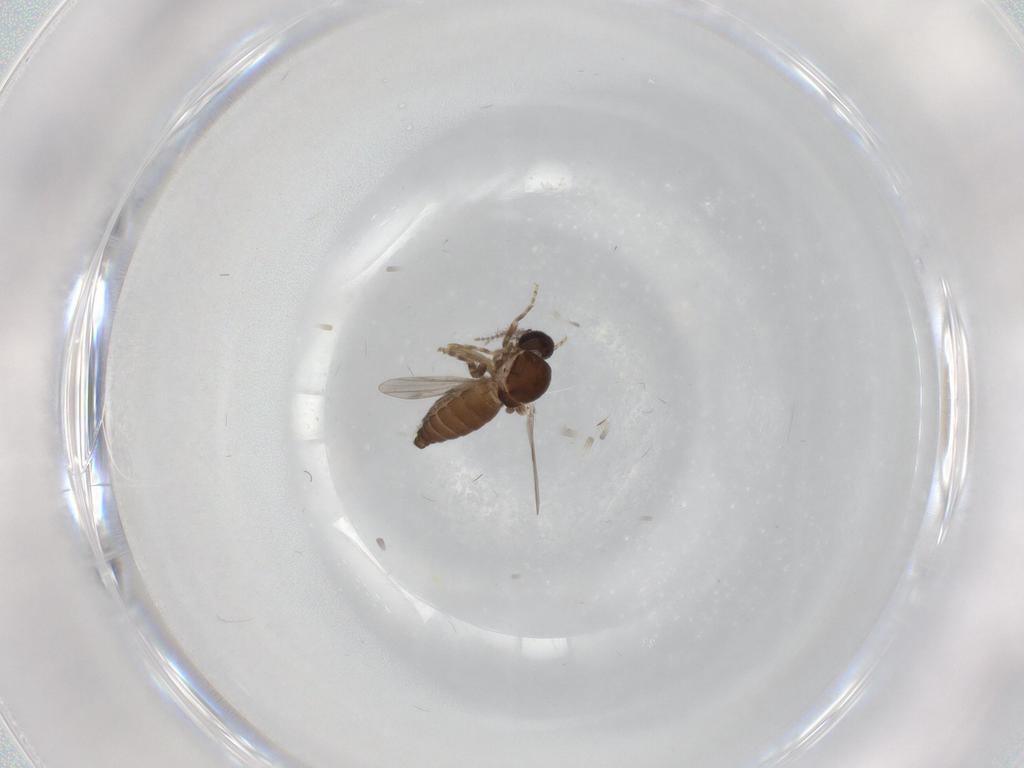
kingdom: Animalia
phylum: Arthropoda
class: Insecta
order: Diptera
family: Ceratopogonidae
